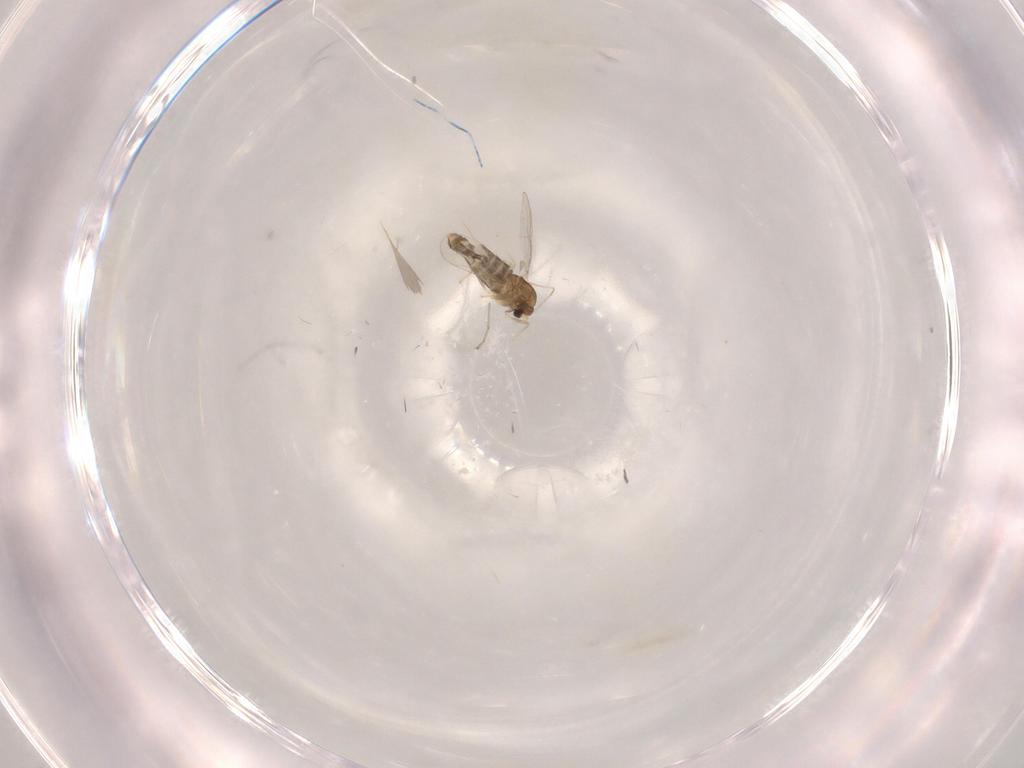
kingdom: Animalia
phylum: Arthropoda
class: Insecta
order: Diptera
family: Chironomidae
